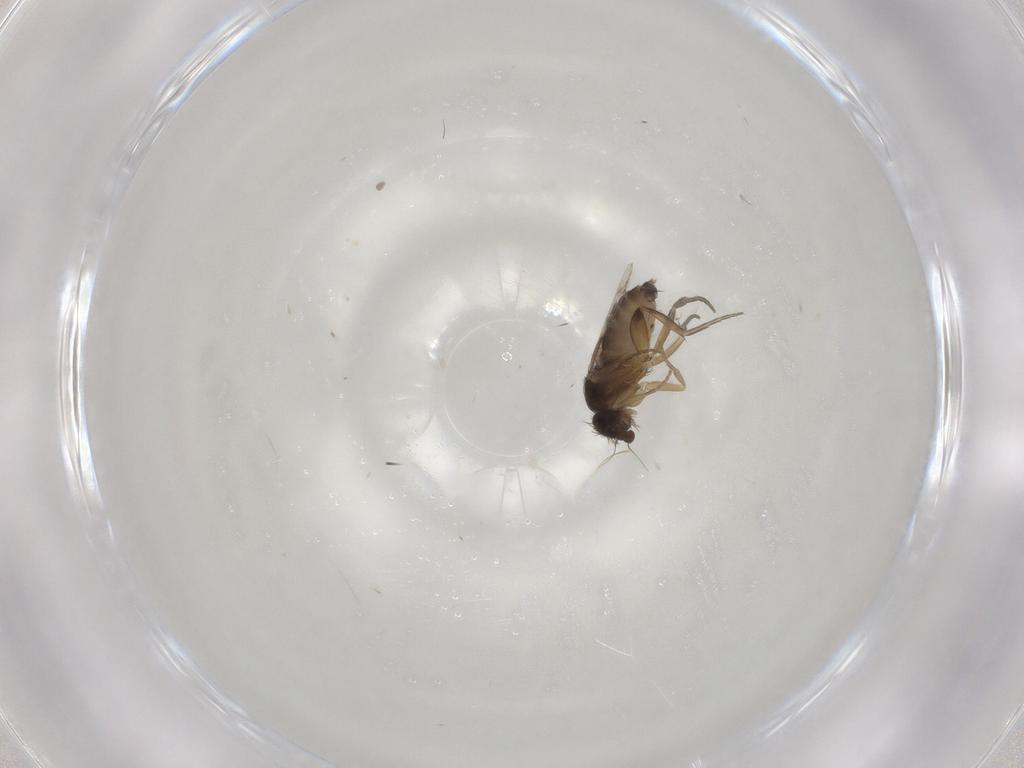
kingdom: Animalia
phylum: Arthropoda
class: Insecta
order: Diptera
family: Phoridae
